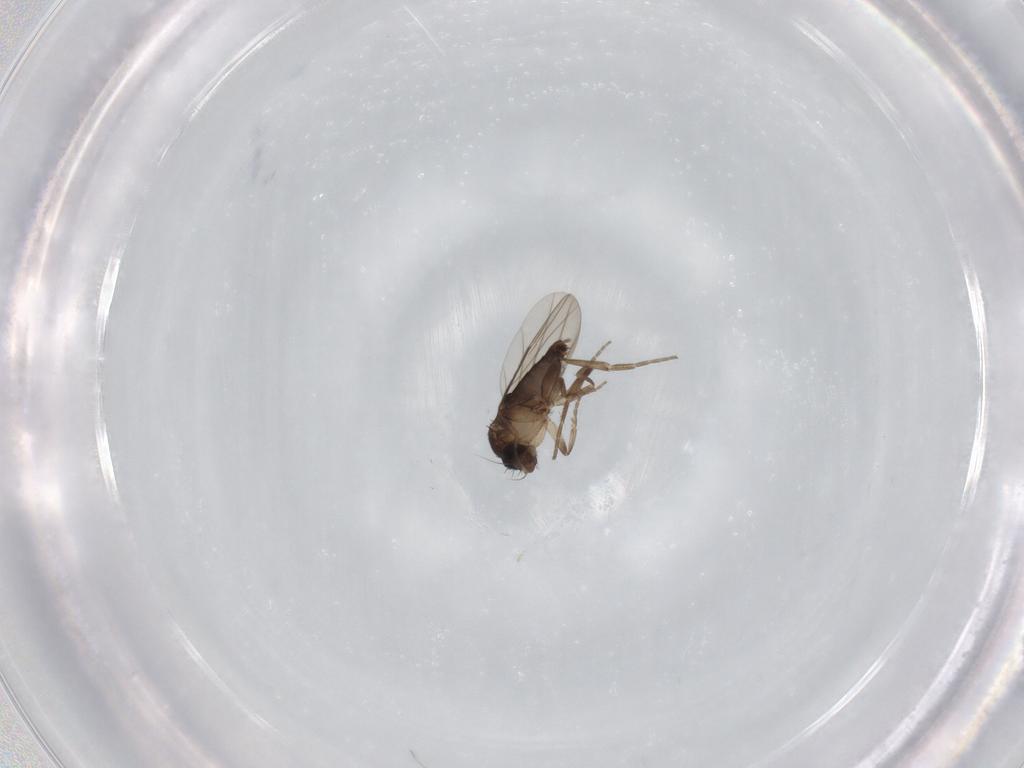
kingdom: Animalia
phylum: Arthropoda
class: Insecta
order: Diptera
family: Phoridae
